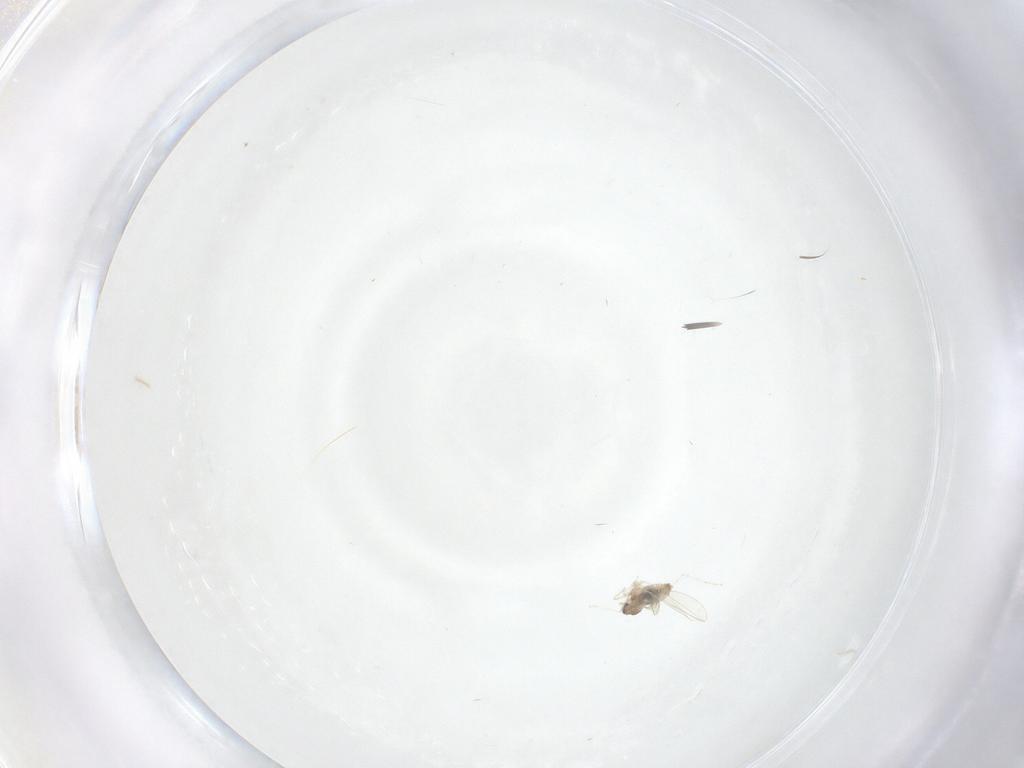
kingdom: Animalia
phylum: Arthropoda
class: Insecta
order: Diptera
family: Cecidomyiidae
